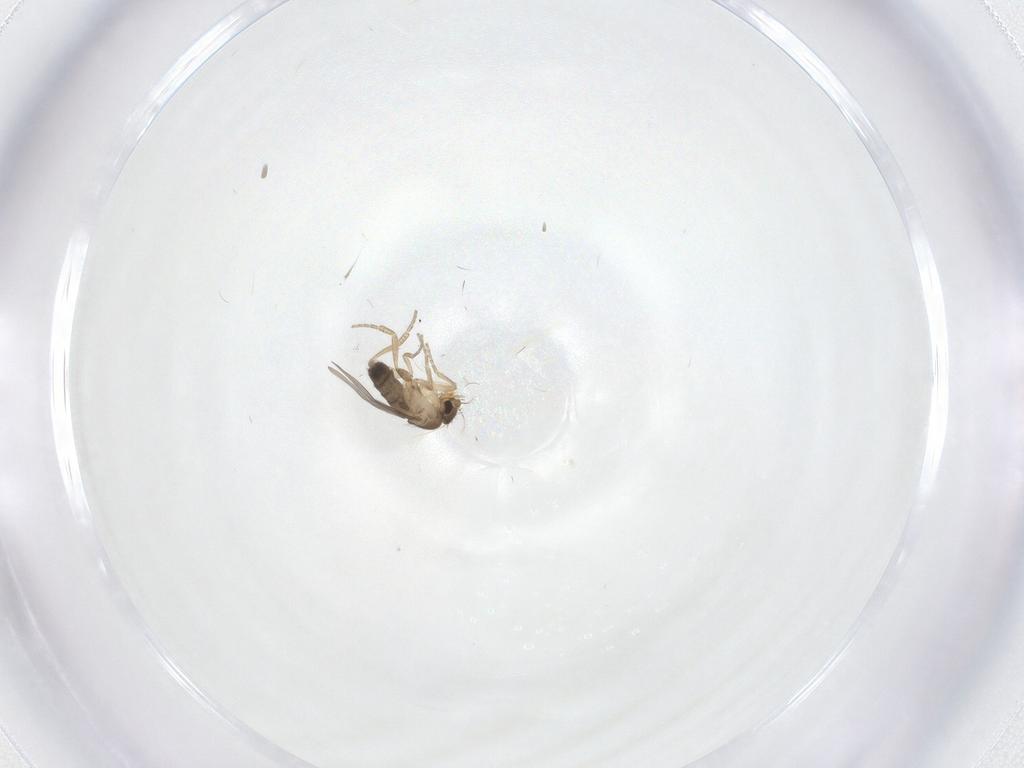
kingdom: Animalia
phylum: Arthropoda
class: Insecta
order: Diptera
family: Phoridae
